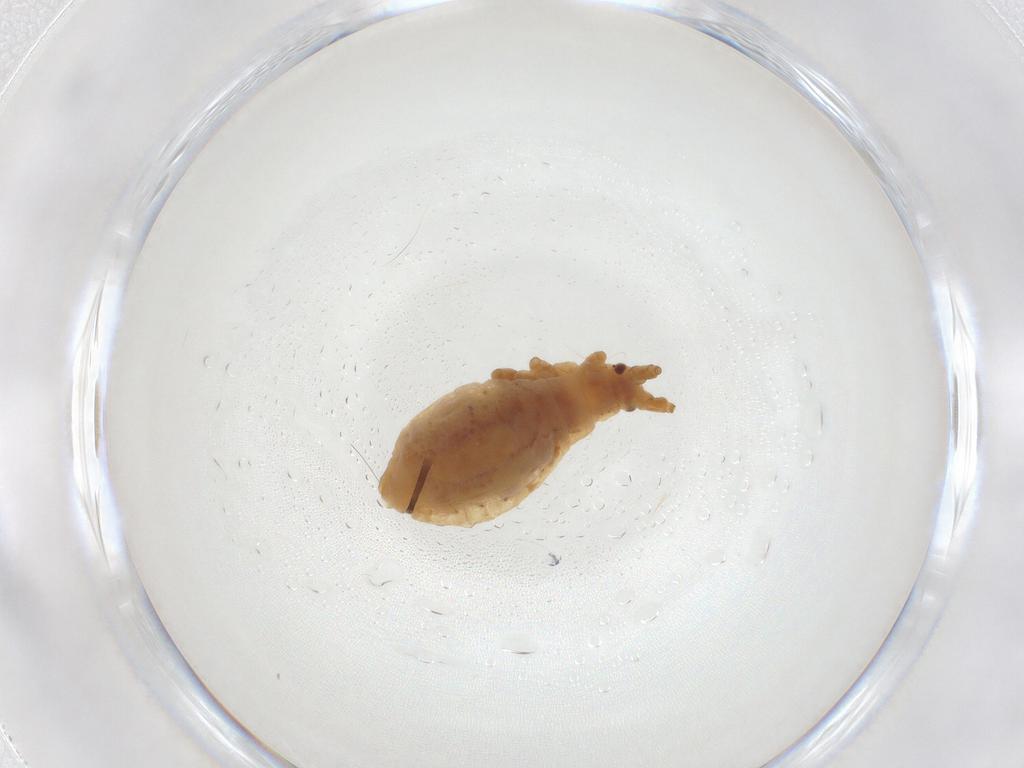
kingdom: Animalia
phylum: Arthropoda
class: Insecta
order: Hemiptera
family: Aphididae
